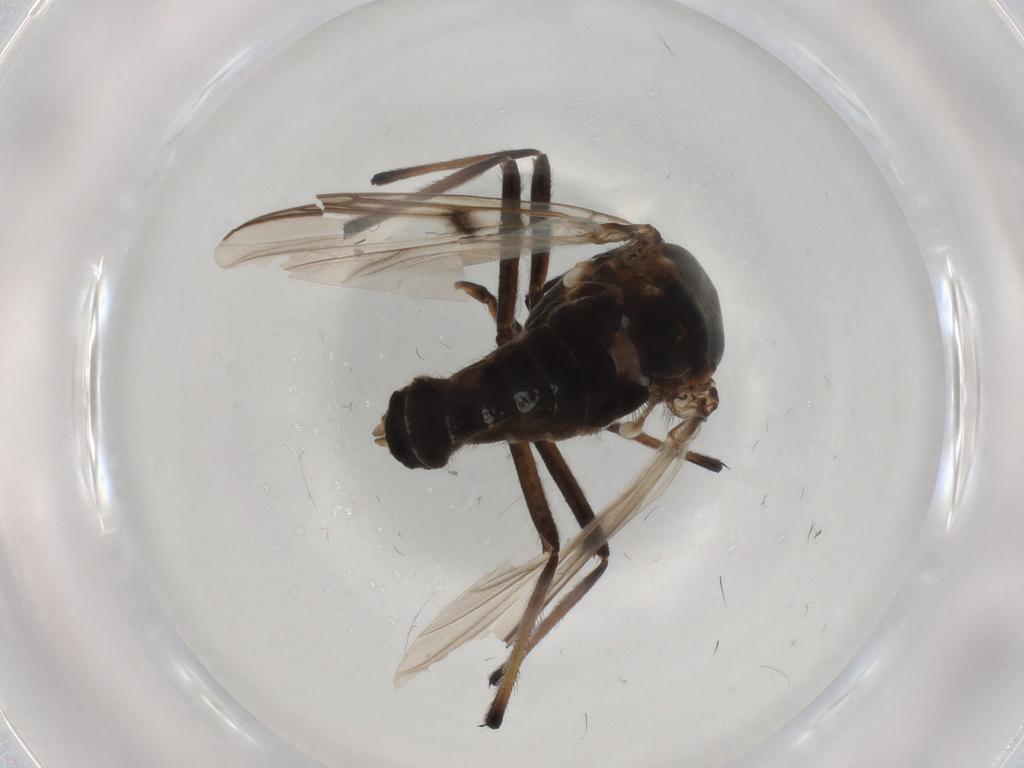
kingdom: Animalia
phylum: Arthropoda
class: Insecta
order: Diptera
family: Chironomidae
